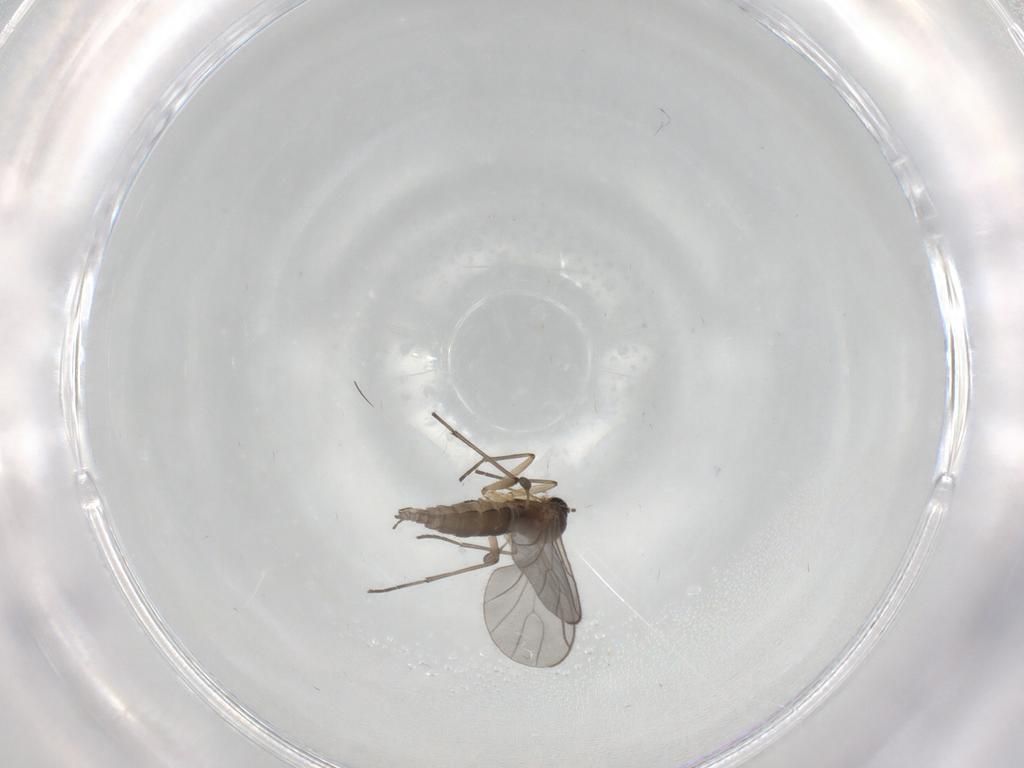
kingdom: Animalia
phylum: Arthropoda
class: Insecta
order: Diptera
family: Sciaridae
